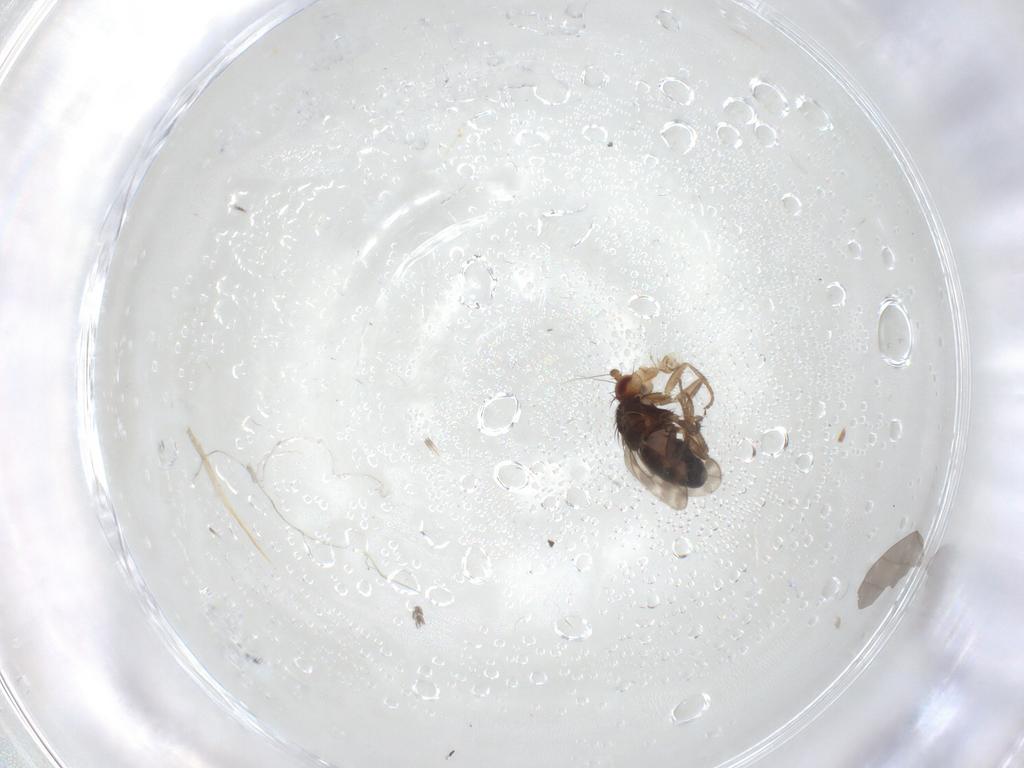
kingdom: Animalia
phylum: Arthropoda
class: Insecta
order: Diptera
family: Sphaeroceridae
